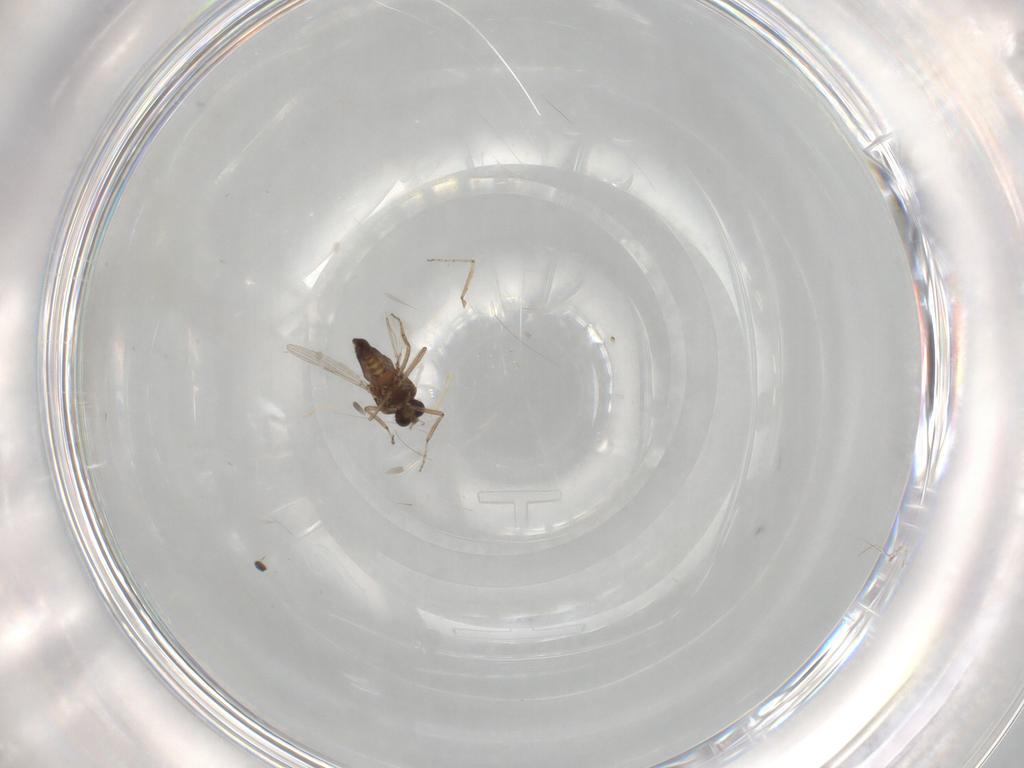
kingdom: Animalia
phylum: Arthropoda
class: Insecta
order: Diptera
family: Ceratopogonidae
